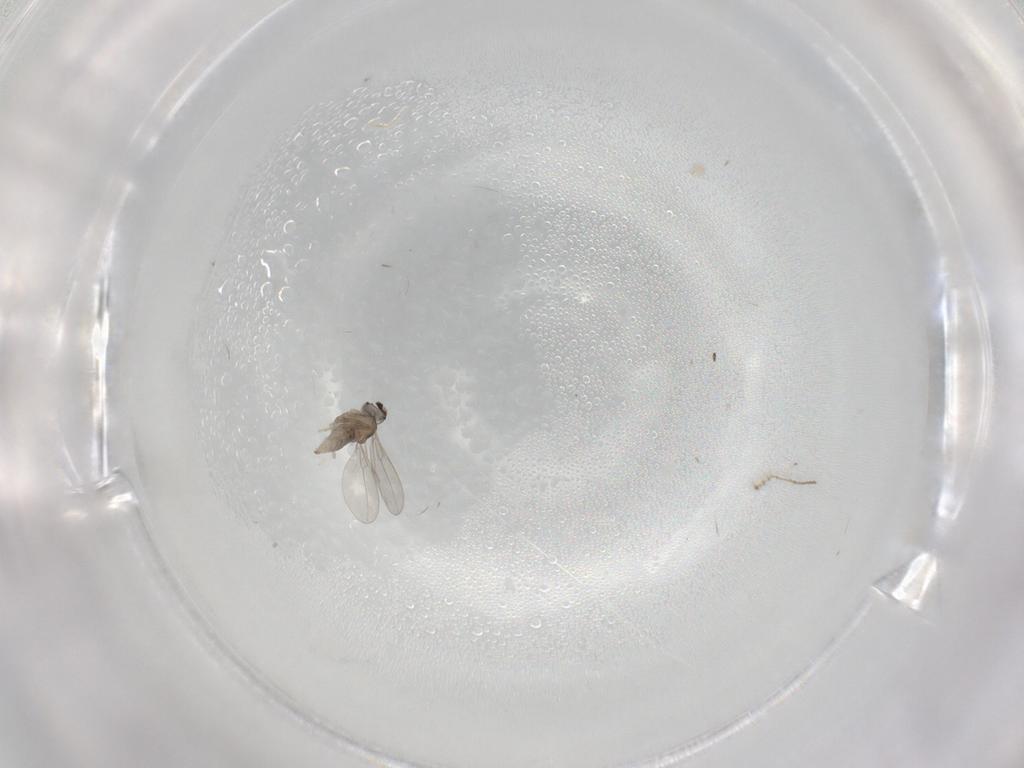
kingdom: Animalia
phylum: Arthropoda
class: Insecta
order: Diptera
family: Cecidomyiidae
